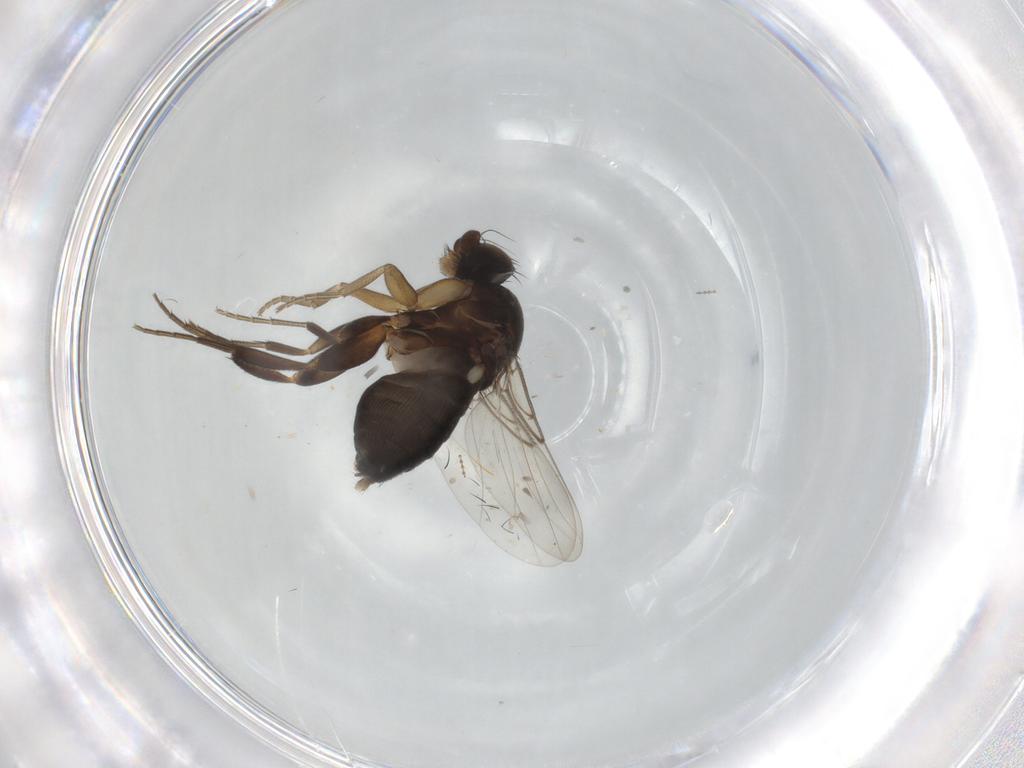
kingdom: Animalia
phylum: Arthropoda
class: Insecta
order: Diptera
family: Phoridae
